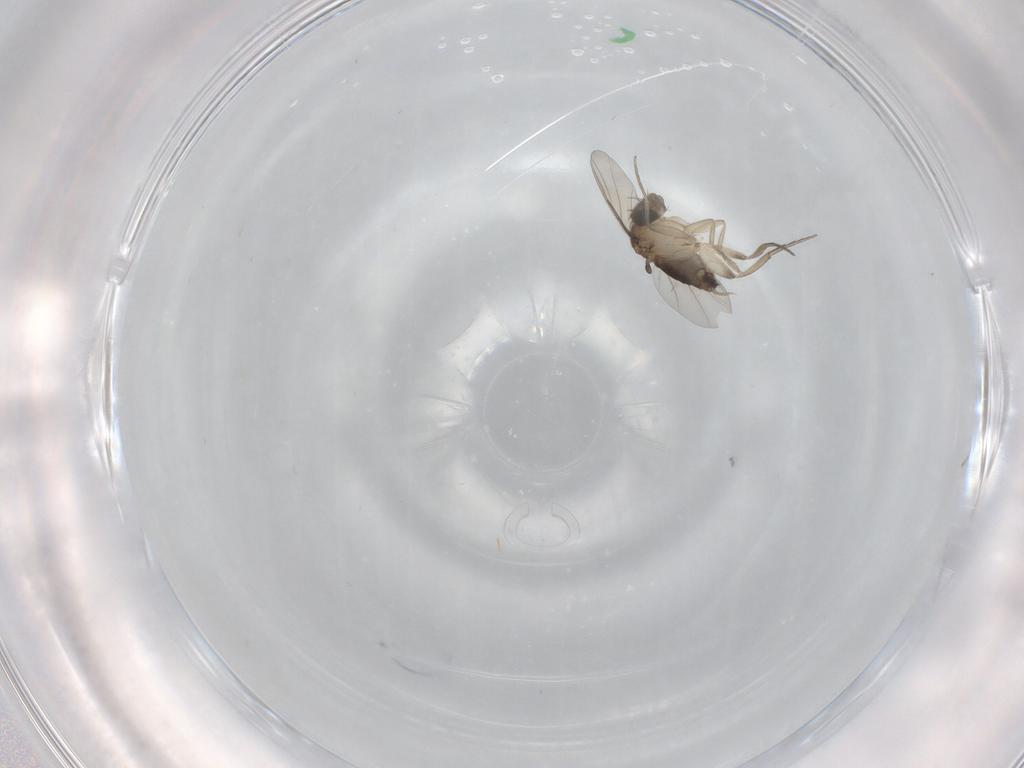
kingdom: Animalia
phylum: Arthropoda
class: Insecta
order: Diptera
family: Phoridae
